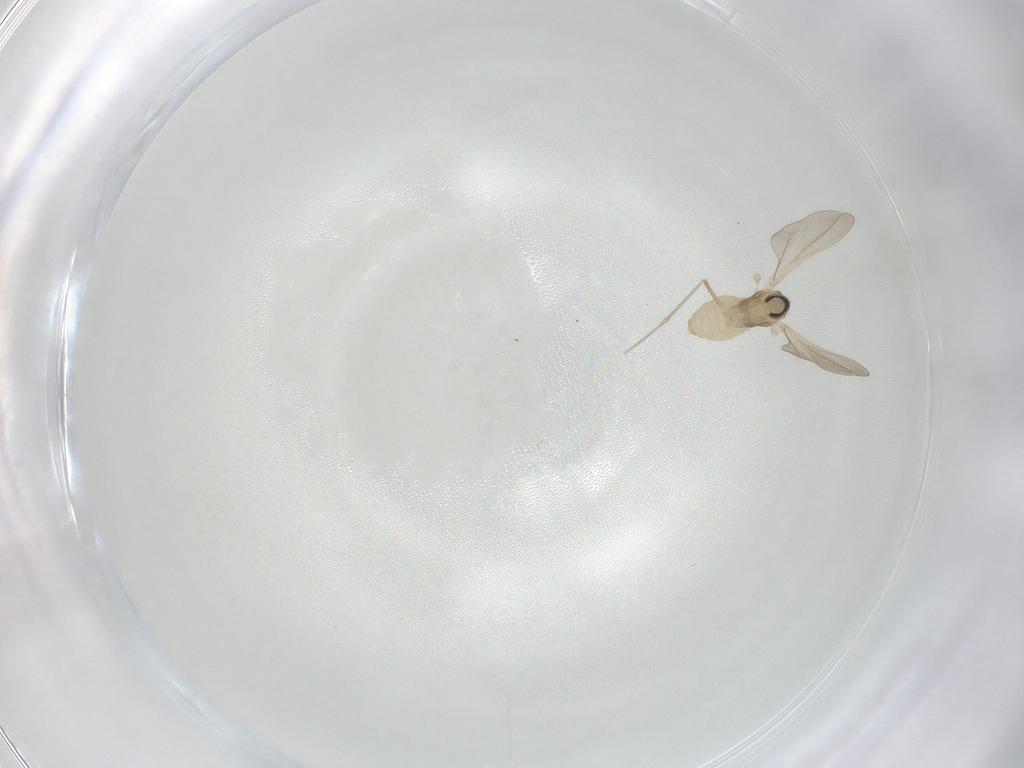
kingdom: Animalia
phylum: Arthropoda
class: Insecta
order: Diptera
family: Cecidomyiidae
